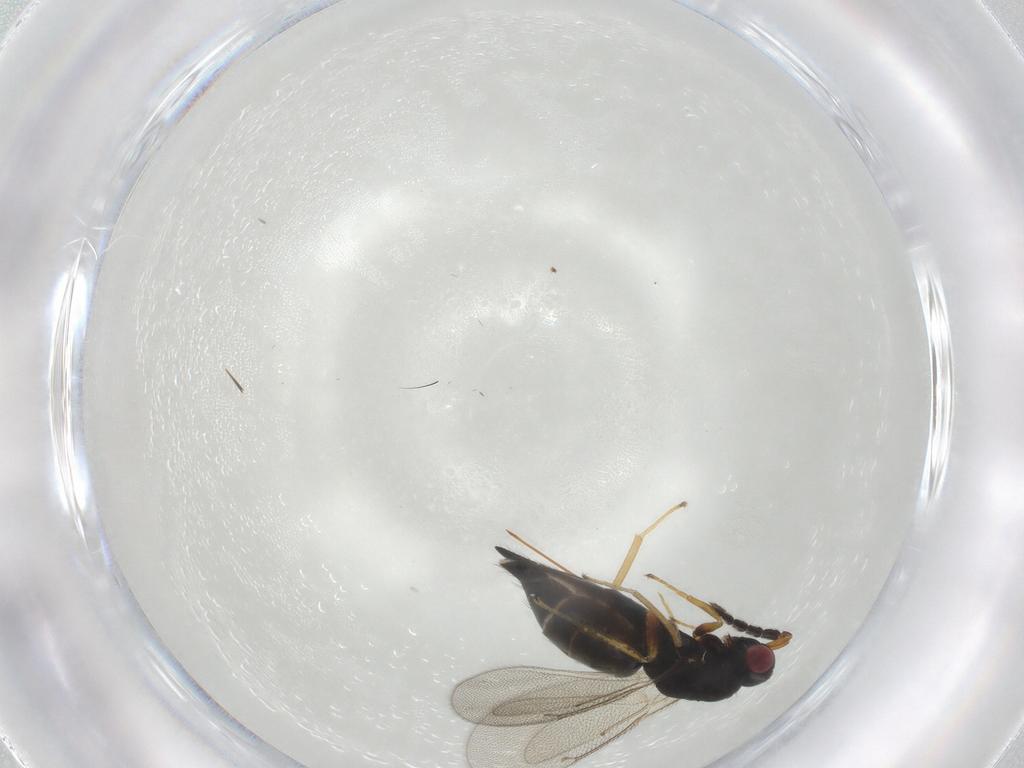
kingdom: Animalia
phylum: Arthropoda
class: Insecta
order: Hymenoptera
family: Eulophidae
